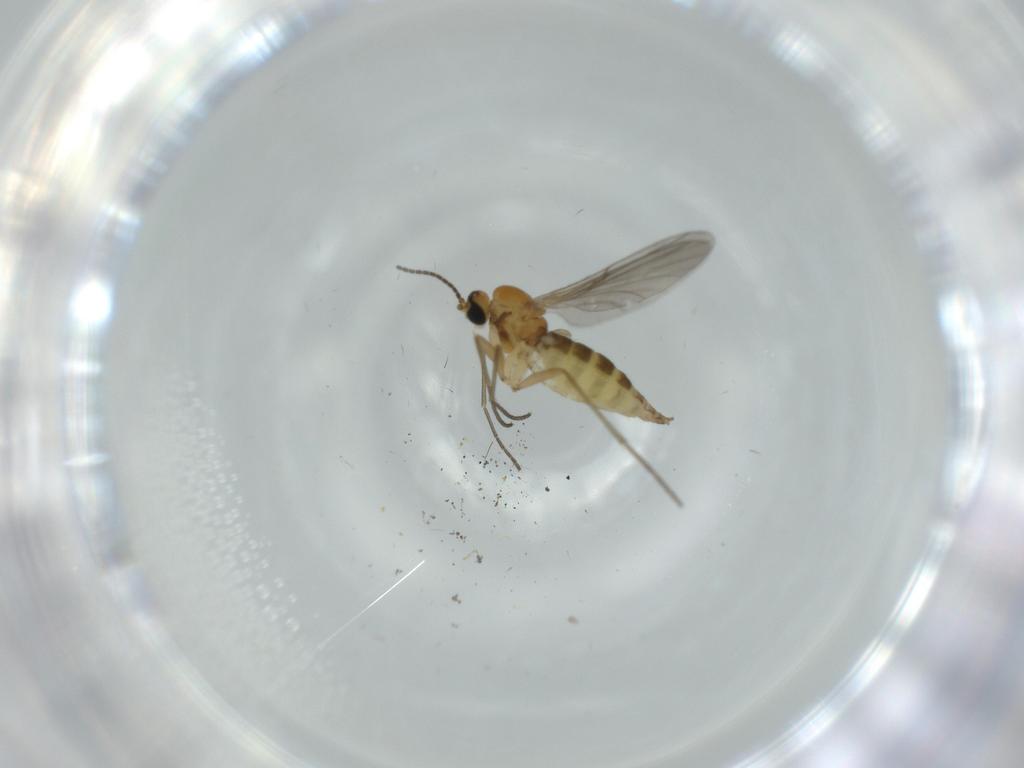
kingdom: Animalia
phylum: Arthropoda
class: Insecta
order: Diptera
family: Sciaridae
